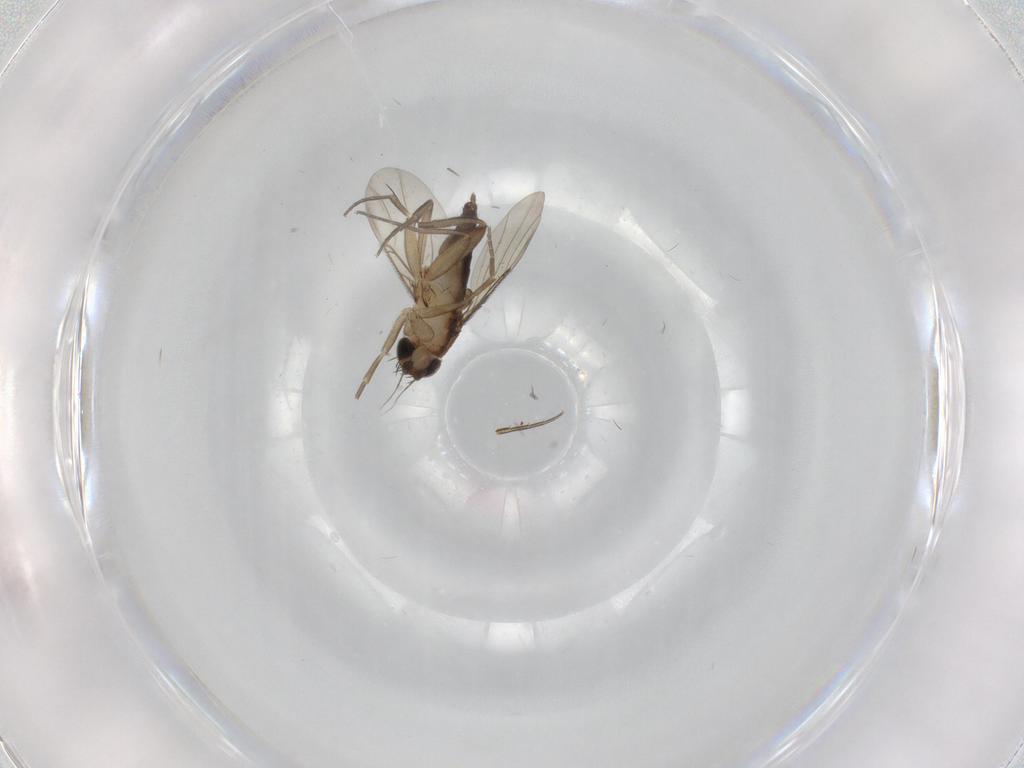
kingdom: Animalia
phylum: Arthropoda
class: Insecta
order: Diptera
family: Phoridae
